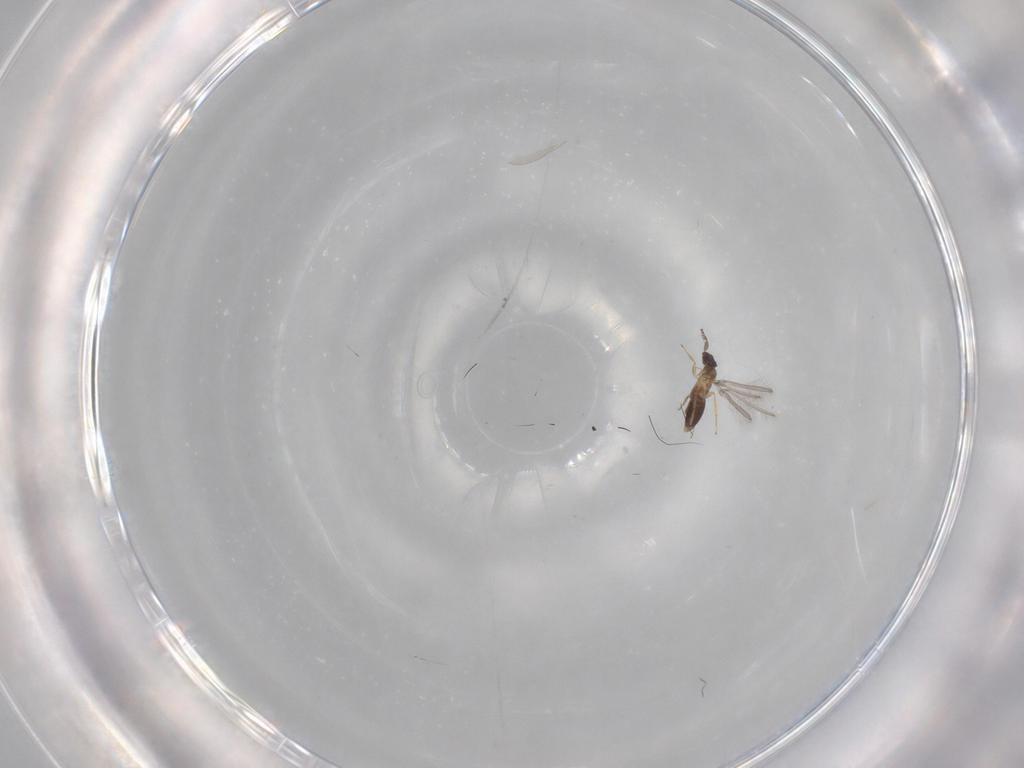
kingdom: Animalia
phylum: Arthropoda
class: Insecta
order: Hymenoptera
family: Mymaridae
